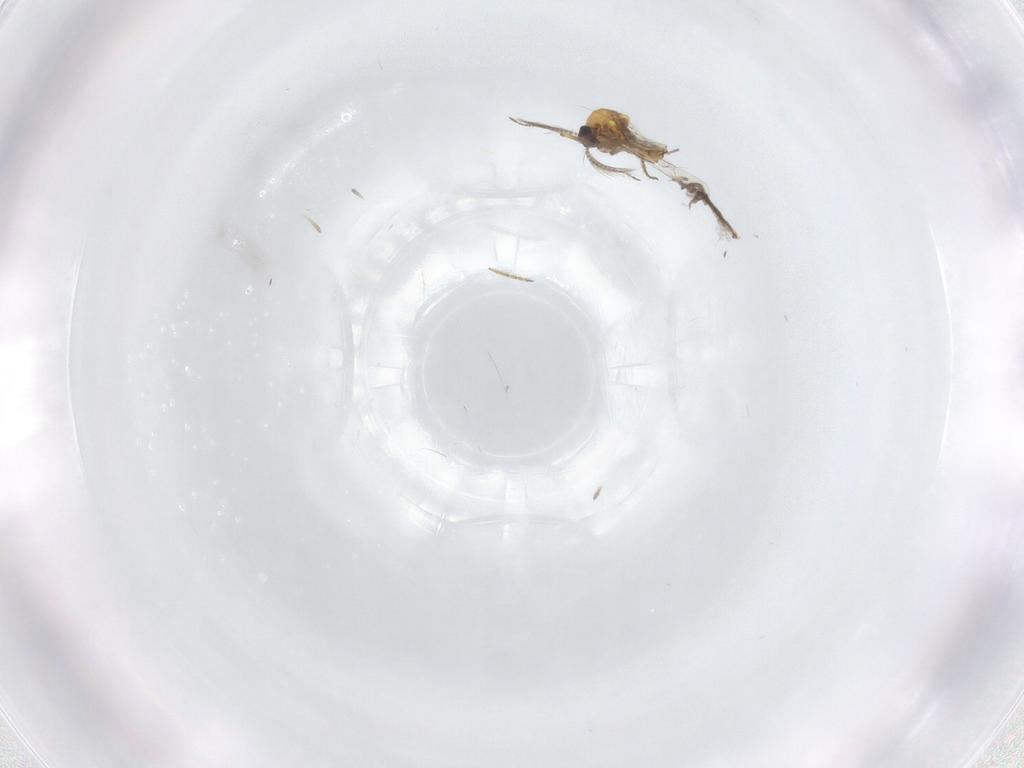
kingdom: Animalia
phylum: Arthropoda
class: Insecta
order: Diptera
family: Ceratopogonidae
